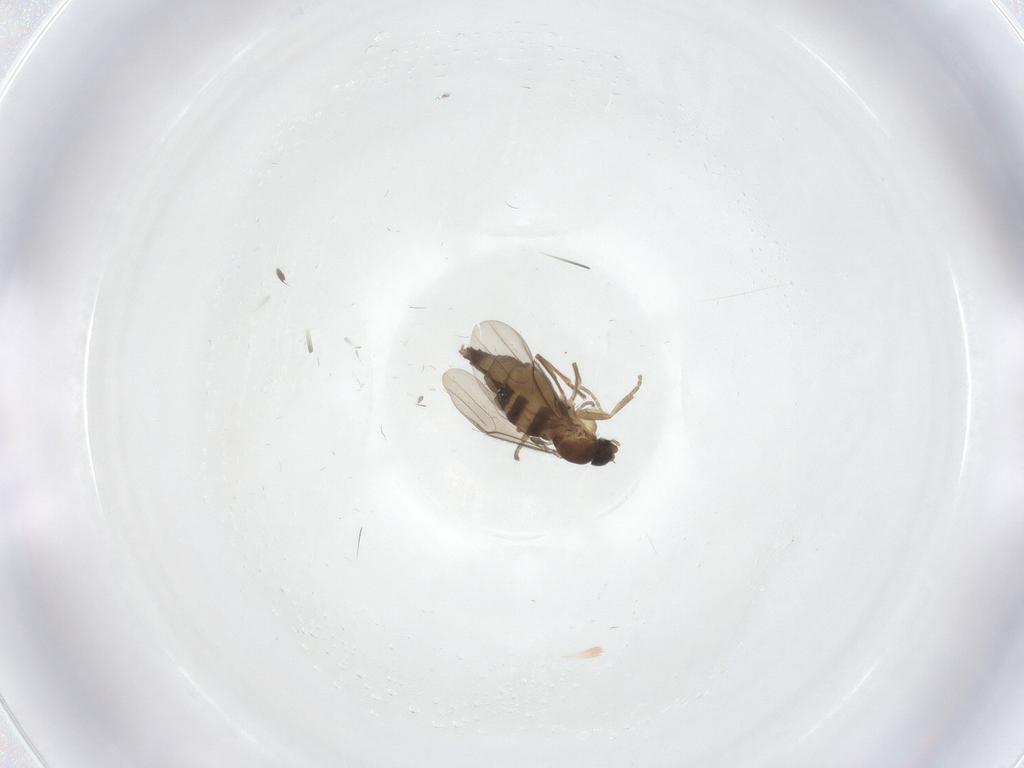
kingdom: Animalia
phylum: Arthropoda
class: Insecta
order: Diptera
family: Phoridae
